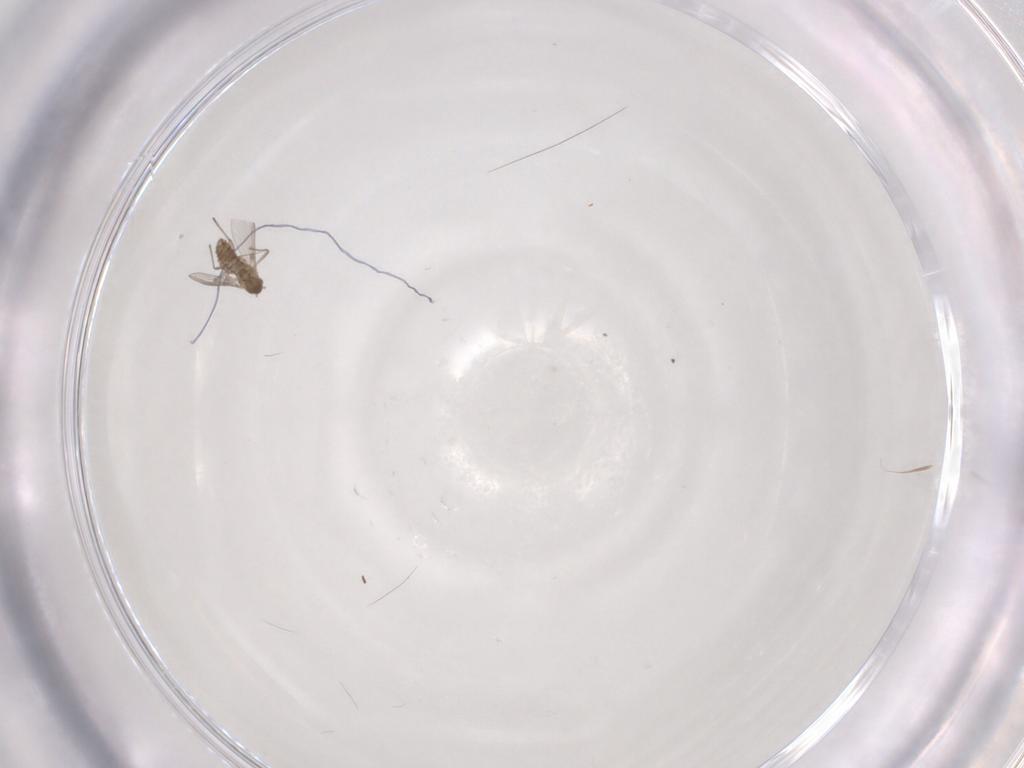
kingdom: Animalia
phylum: Arthropoda
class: Insecta
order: Diptera
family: Chironomidae
